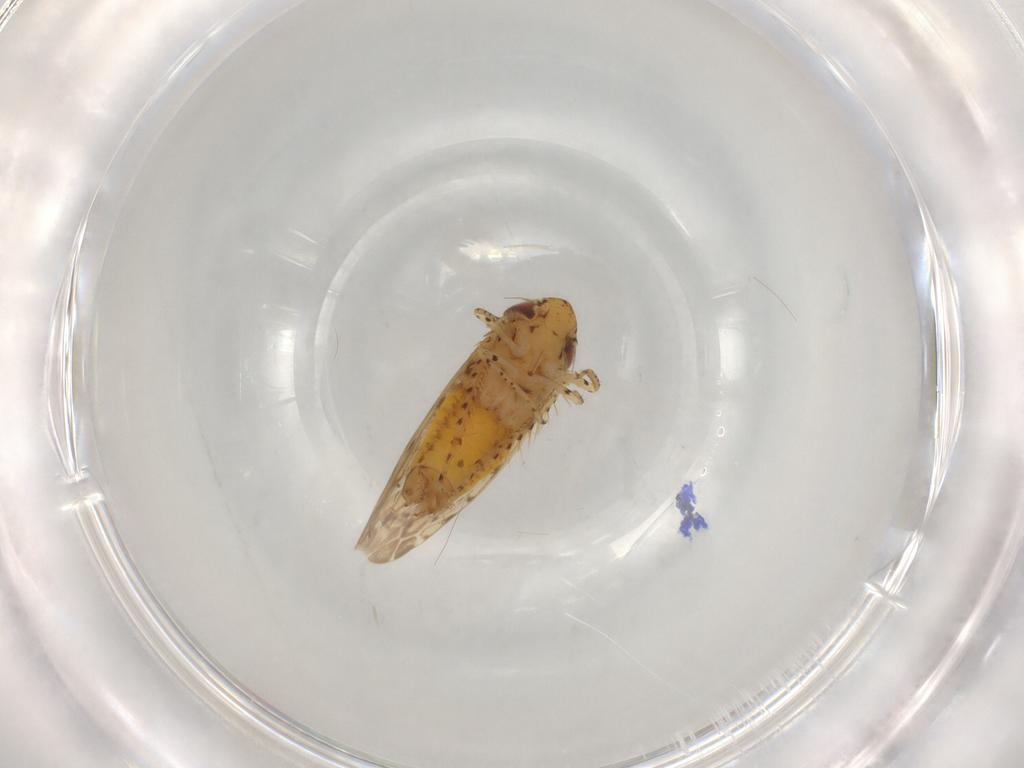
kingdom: Animalia
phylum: Arthropoda
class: Insecta
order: Hemiptera
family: Cicadellidae
